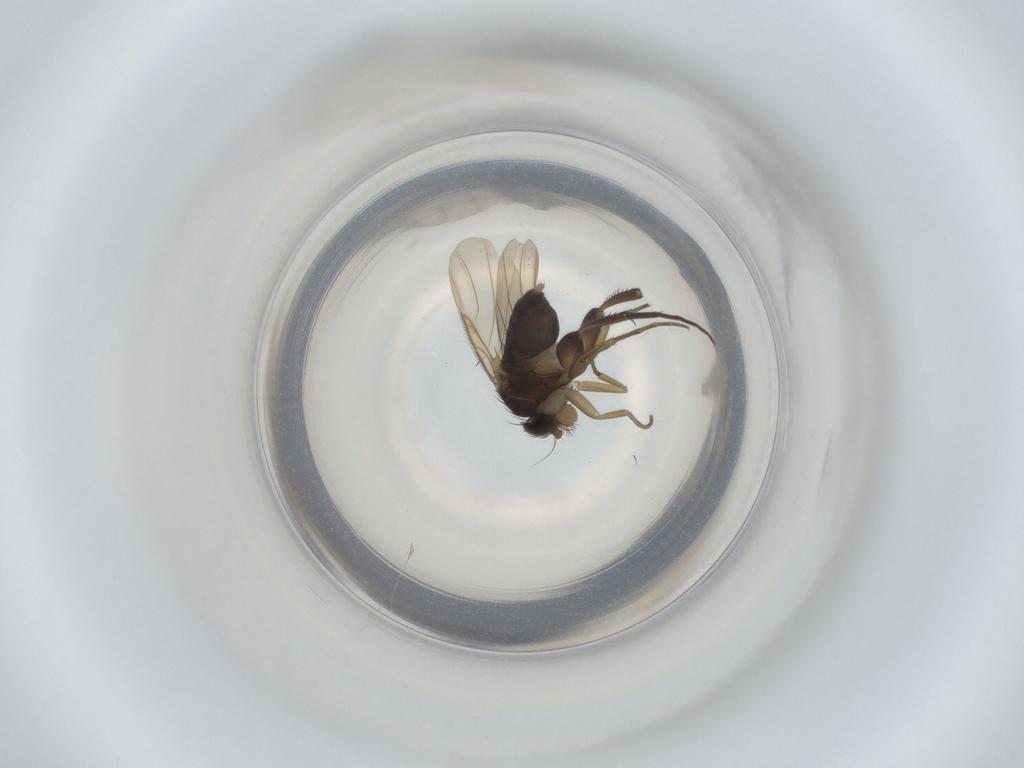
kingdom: Animalia
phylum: Arthropoda
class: Insecta
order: Diptera
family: Phoridae
